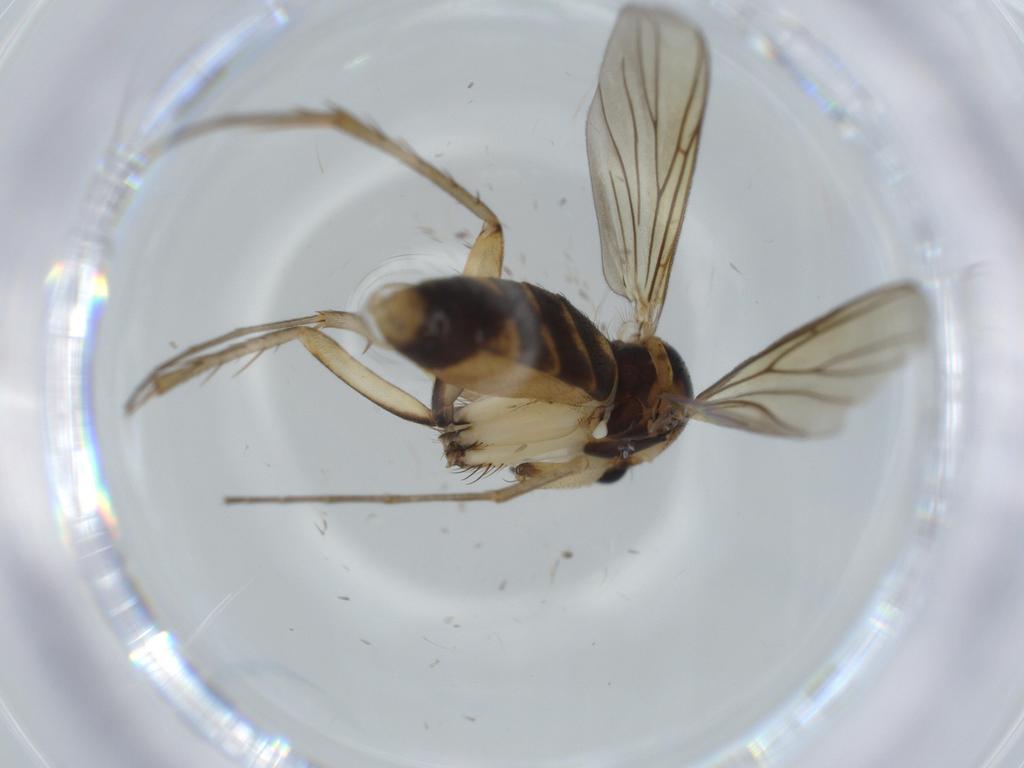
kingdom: Animalia
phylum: Arthropoda
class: Insecta
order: Diptera
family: Mycetophilidae
